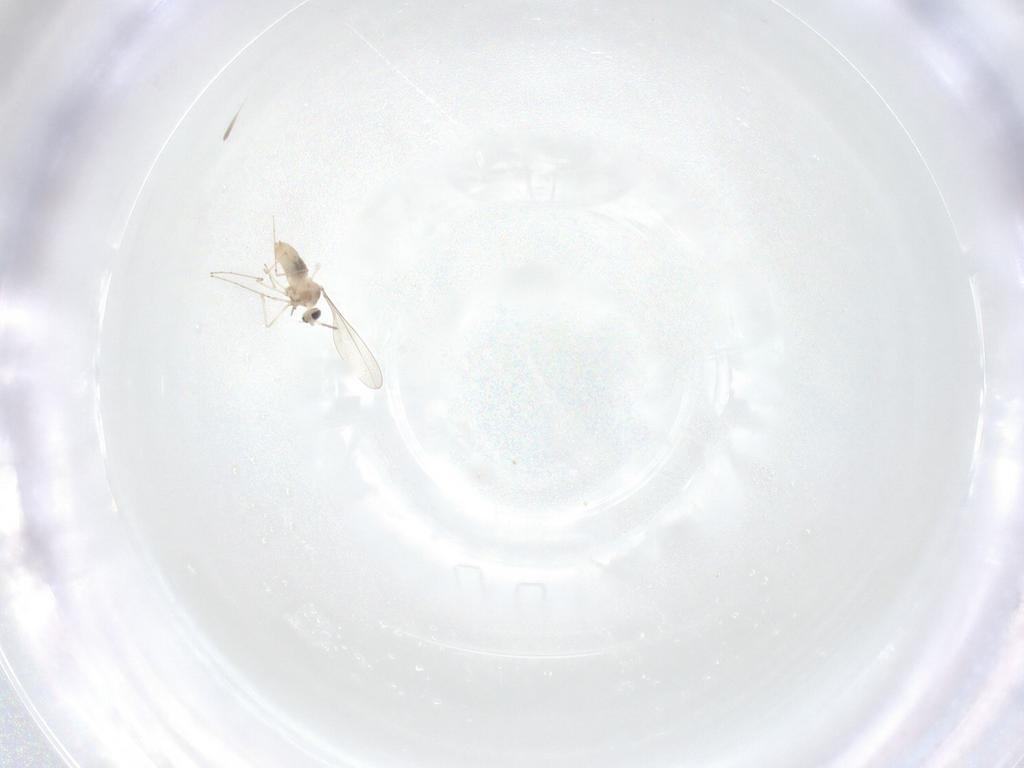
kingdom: Animalia
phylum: Arthropoda
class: Insecta
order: Diptera
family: Cecidomyiidae
